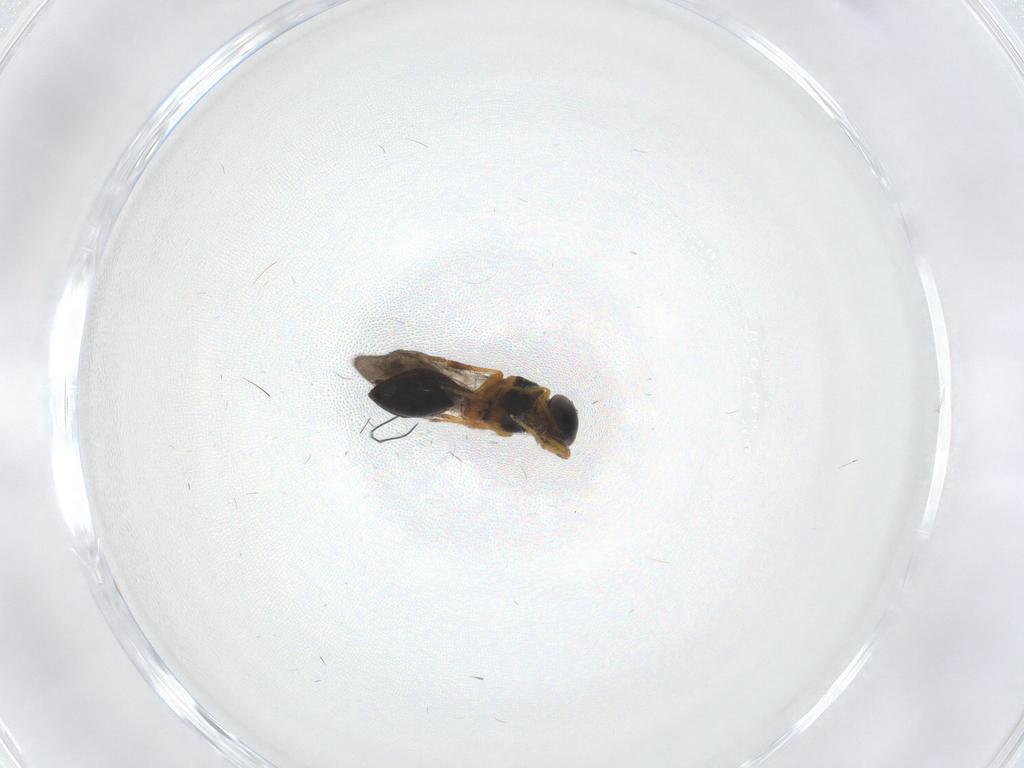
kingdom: Animalia
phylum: Arthropoda
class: Insecta
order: Hymenoptera
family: Platygastridae
